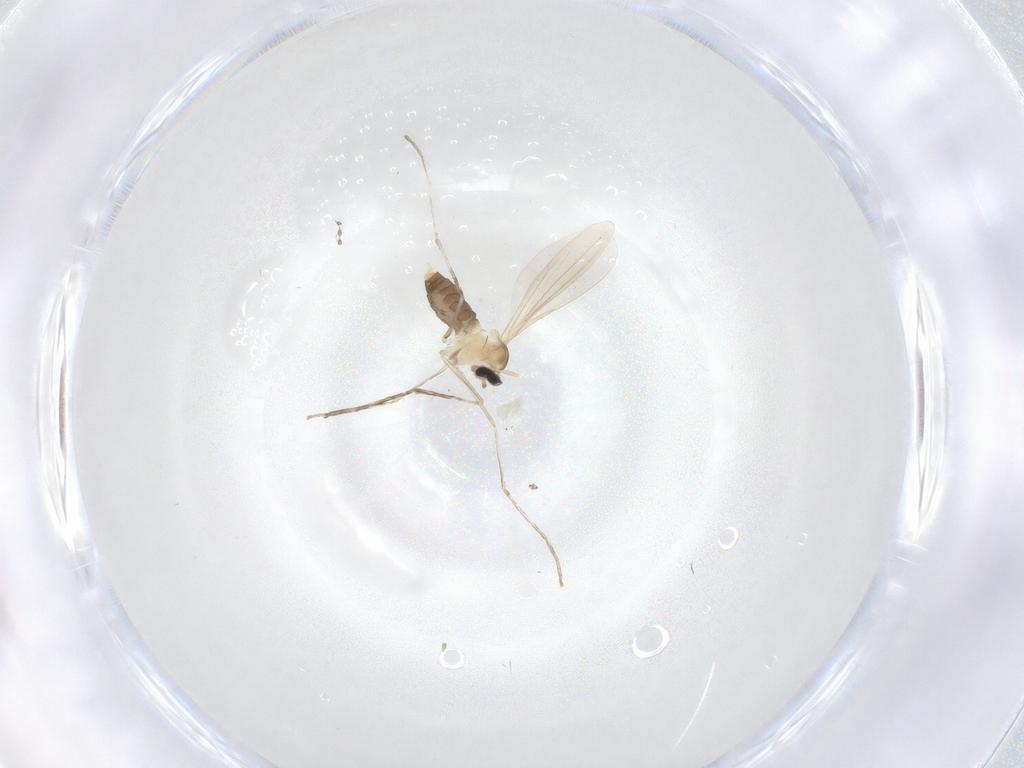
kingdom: Animalia
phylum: Arthropoda
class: Insecta
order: Diptera
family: Cecidomyiidae
